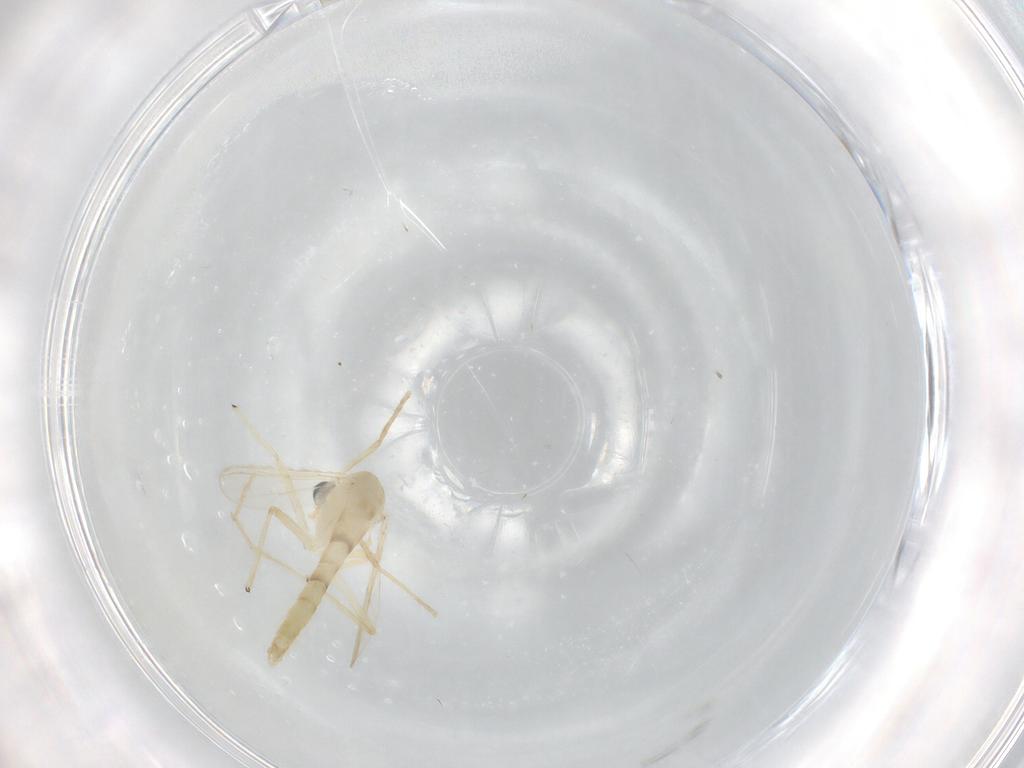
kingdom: Animalia
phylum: Arthropoda
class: Insecta
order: Diptera
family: Chironomidae
